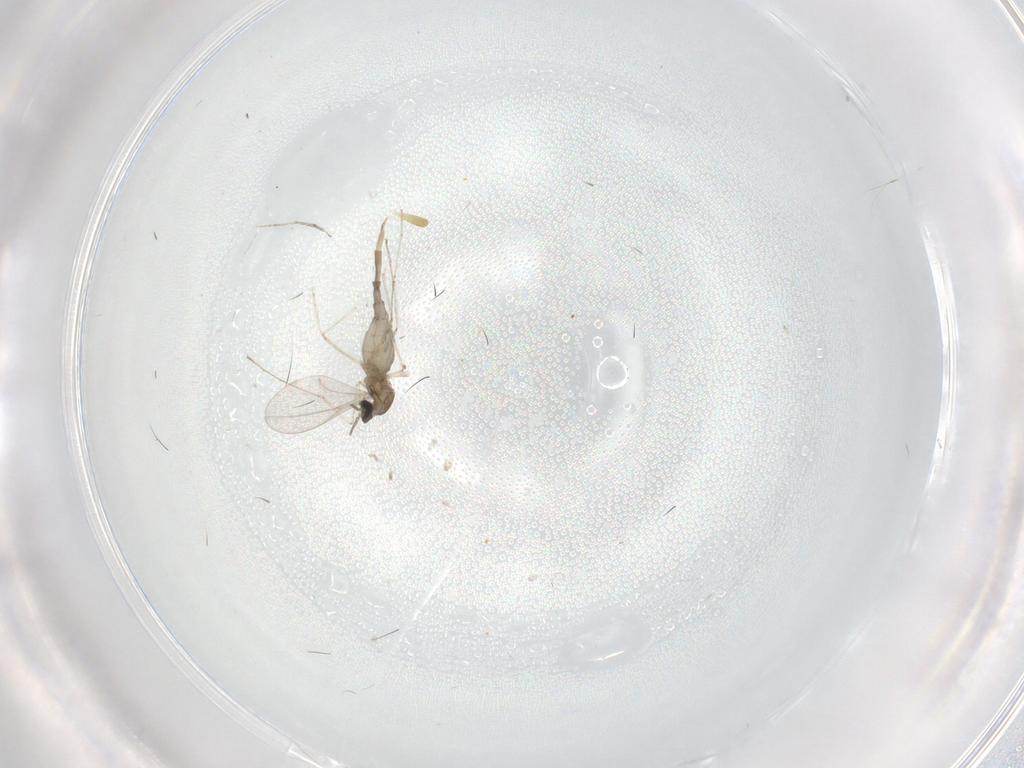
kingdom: Animalia
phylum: Arthropoda
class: Insecta
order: Diptera
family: Cecidomyiidae
